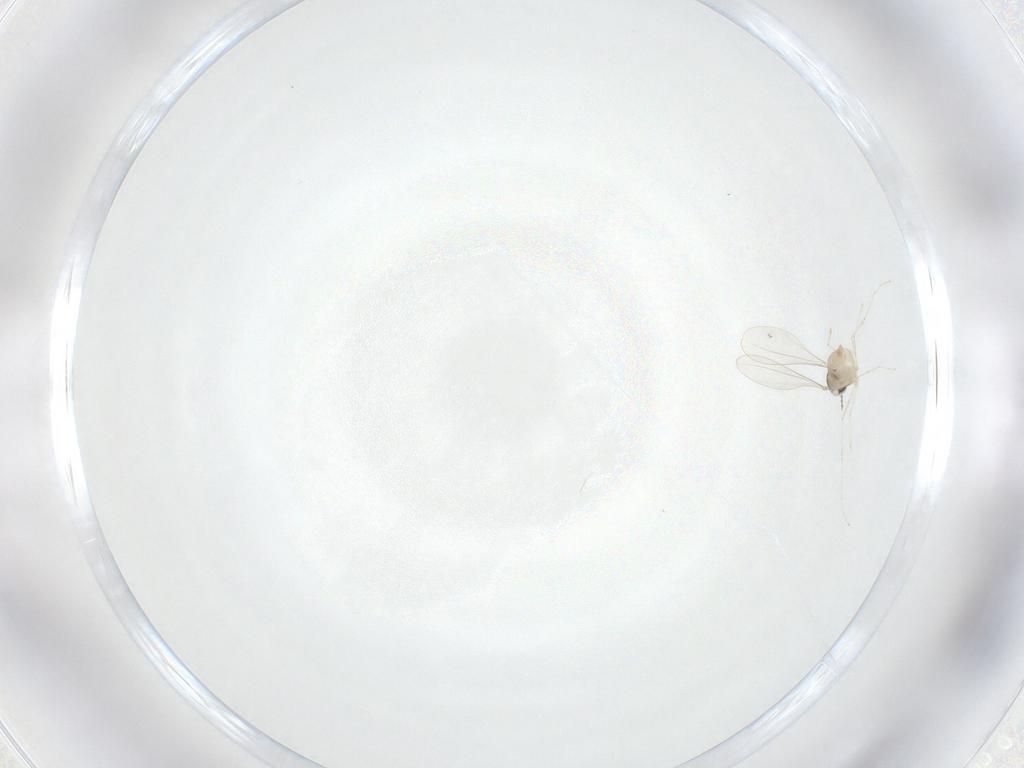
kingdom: Animalia
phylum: Arthropoda
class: Insecta
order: Diptera
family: Cecidomyiidae
